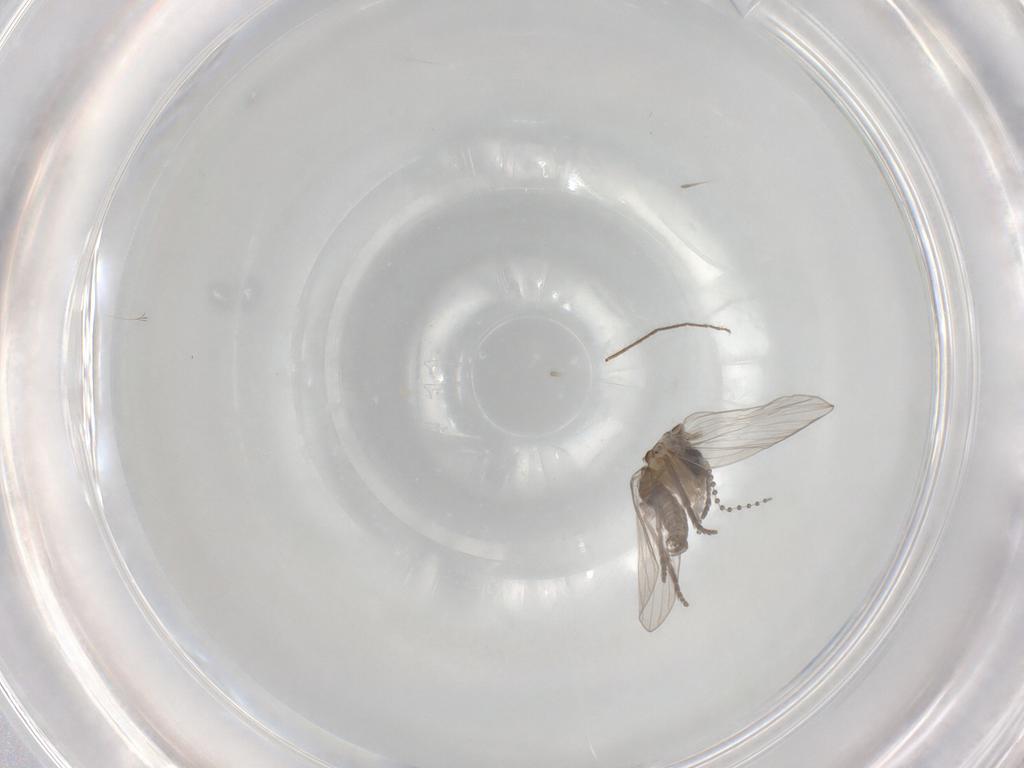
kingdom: Animalia
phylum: Arthropoda
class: Insecta
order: Diptera
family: Psychodidae
